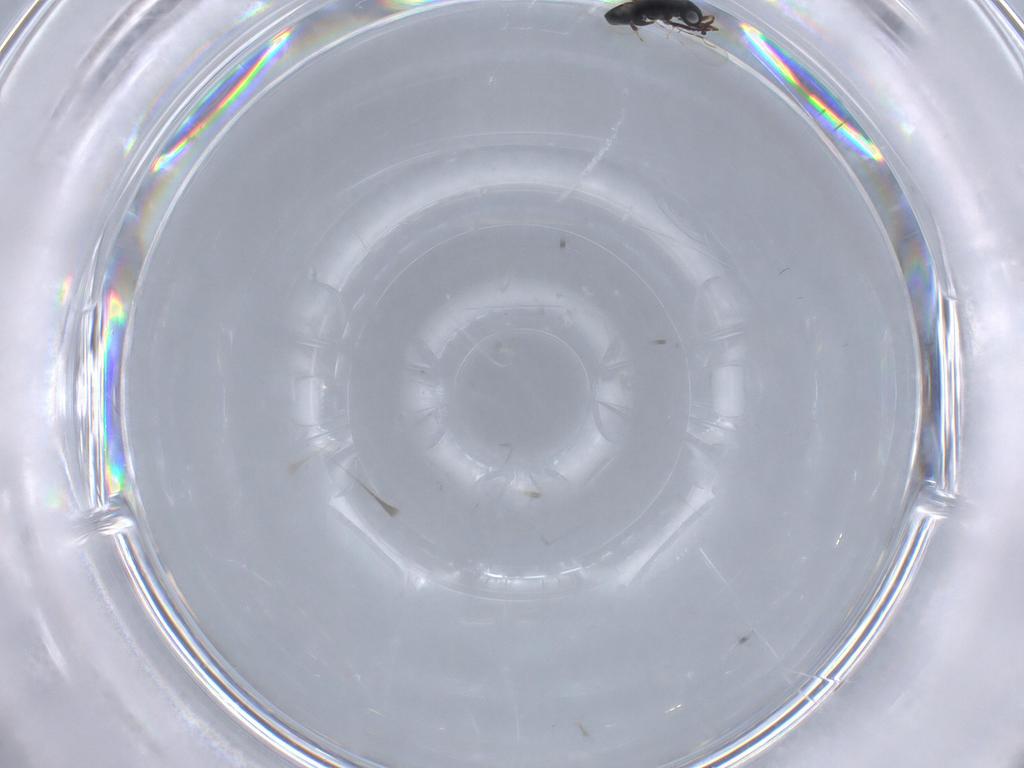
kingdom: Animalia
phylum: Arthropoda
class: Insecta
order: Hymenoptera
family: Bethylidae
